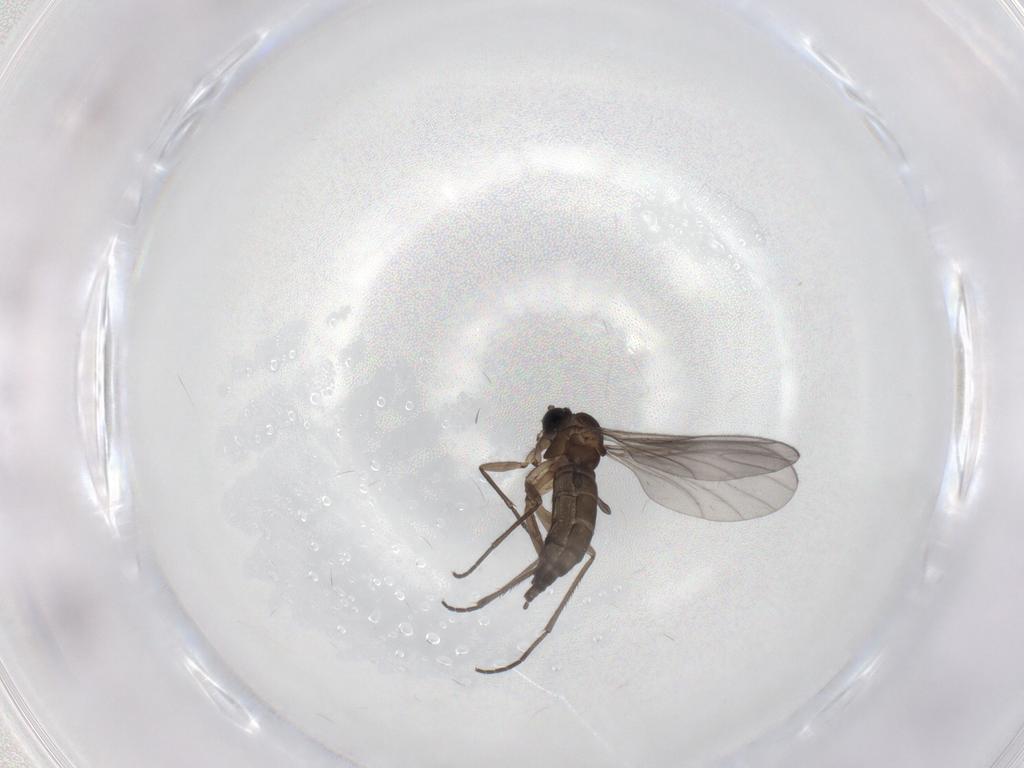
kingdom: Animalia
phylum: Arthropoda
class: Insecta
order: Diptera
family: Sciaridae
